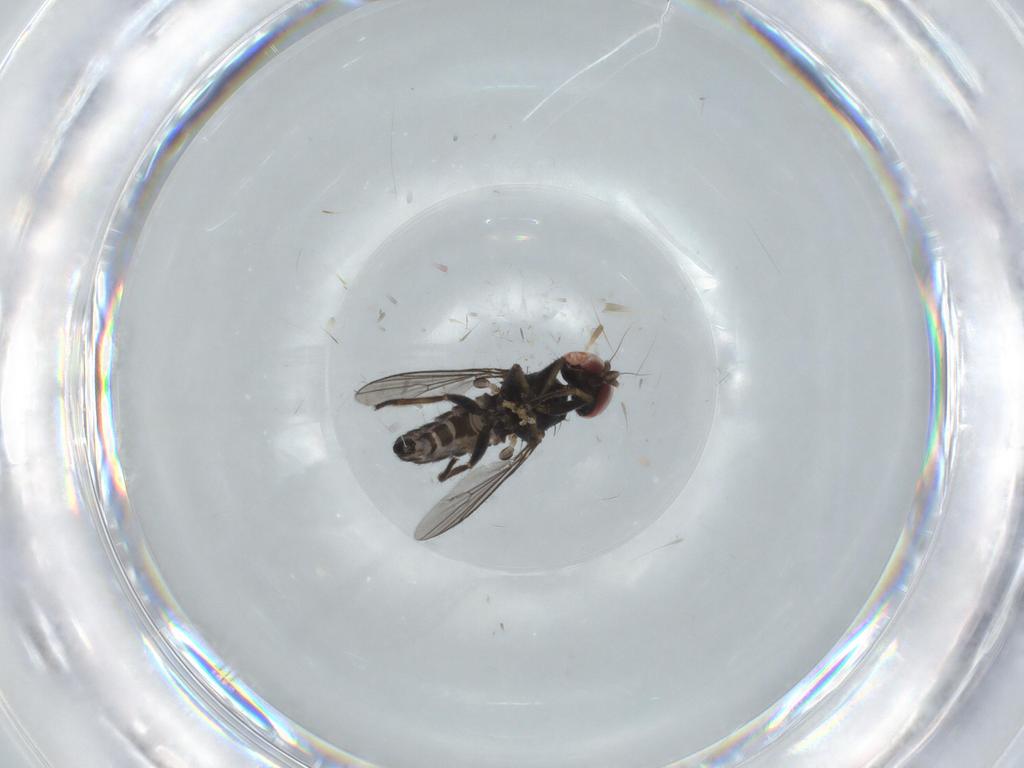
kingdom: Animalia
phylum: Arthropoda
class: Insecta
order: Diptera
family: Dolichopodidae
